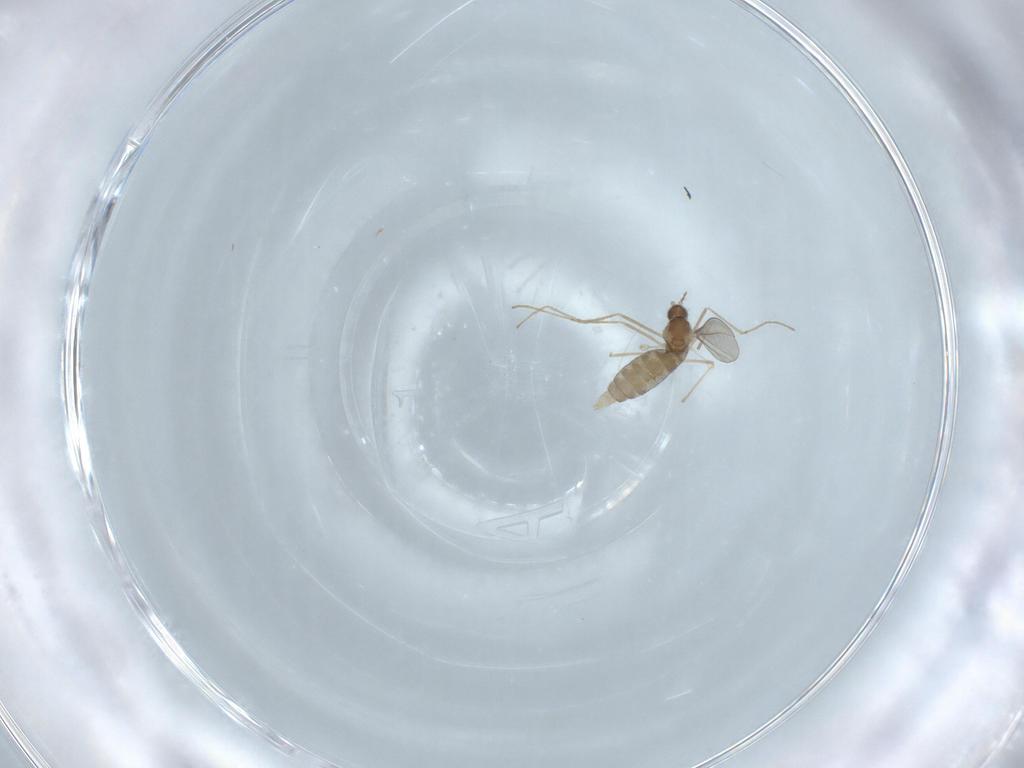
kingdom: Animalia
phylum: Arthropoda
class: Insecta
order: Diptera
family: Cecidomyiidae
